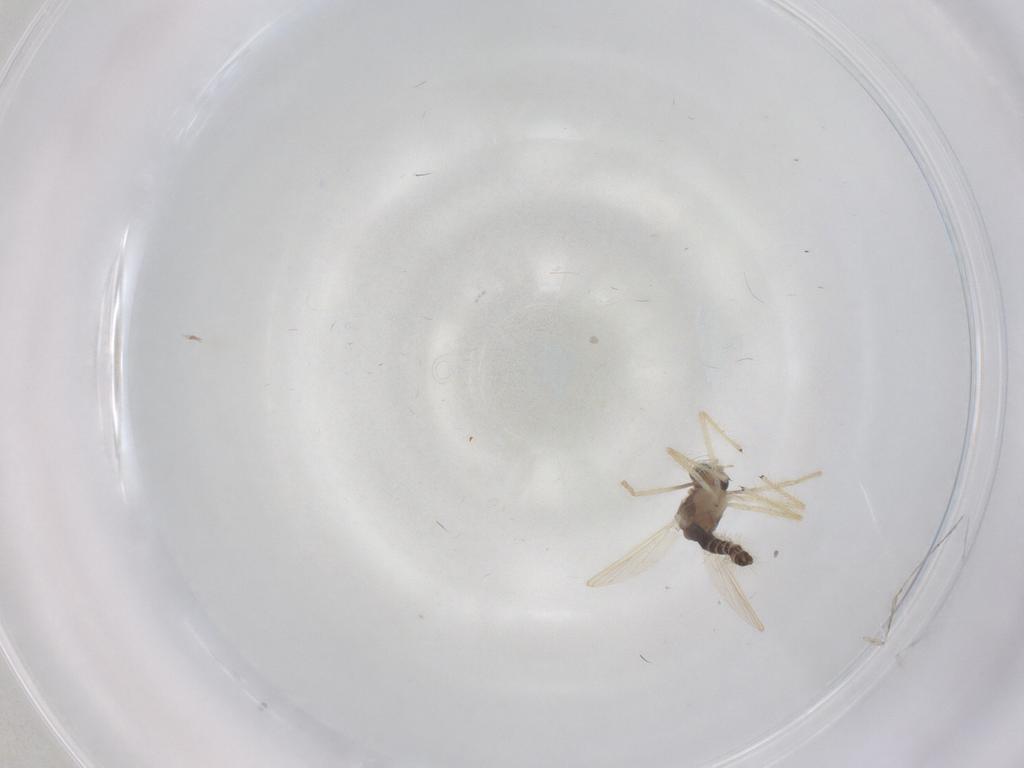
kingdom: Animalia
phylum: Arthropoda
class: Insecta
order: Diptera
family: Chironomidae
